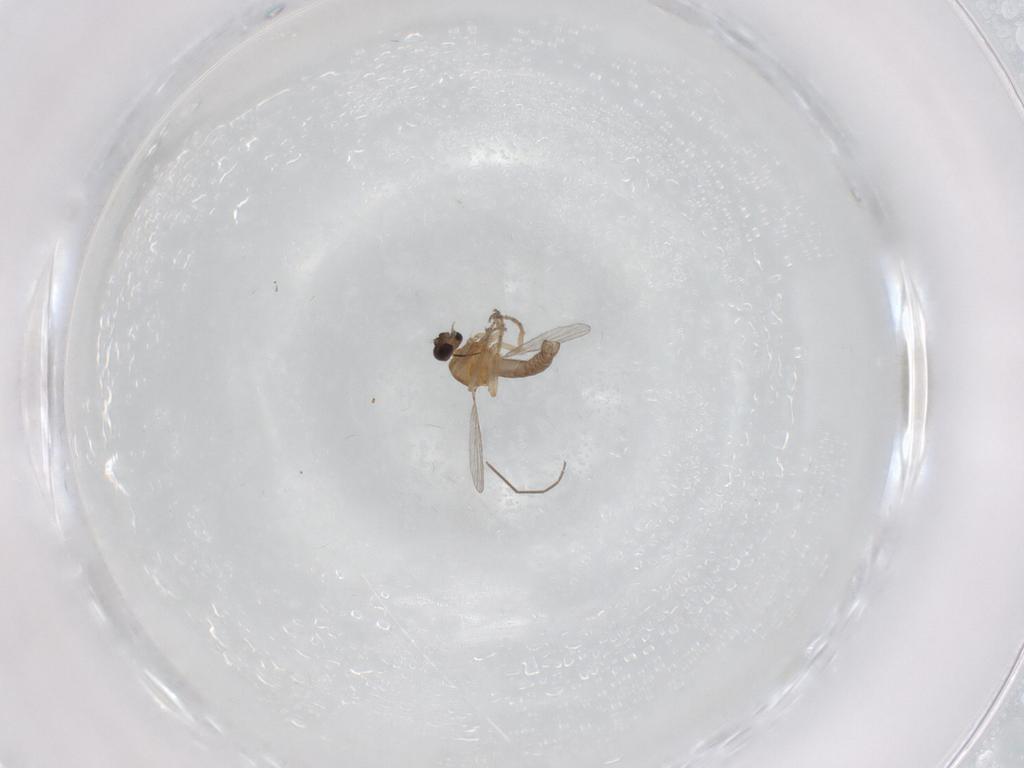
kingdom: Animalia
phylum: Arthropoda
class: Insecta
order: Diptera
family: Ceratopogonidae
